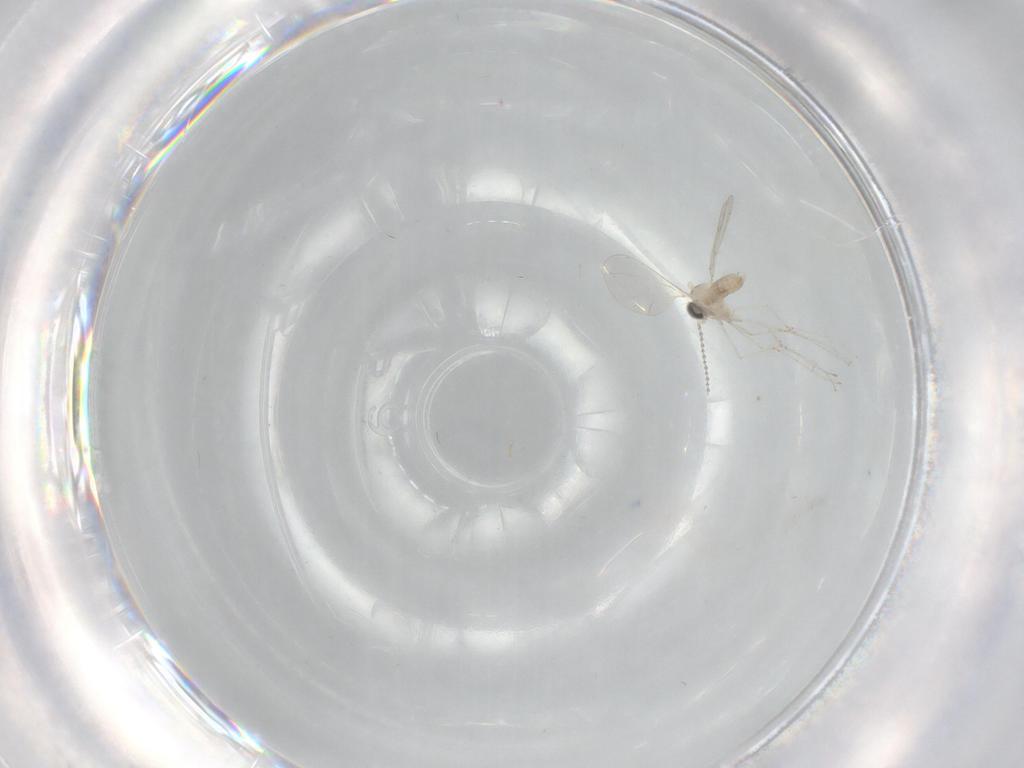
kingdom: Animalia
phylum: Arthropoda
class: Insecta
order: Diptera
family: Cecidomyiidae
